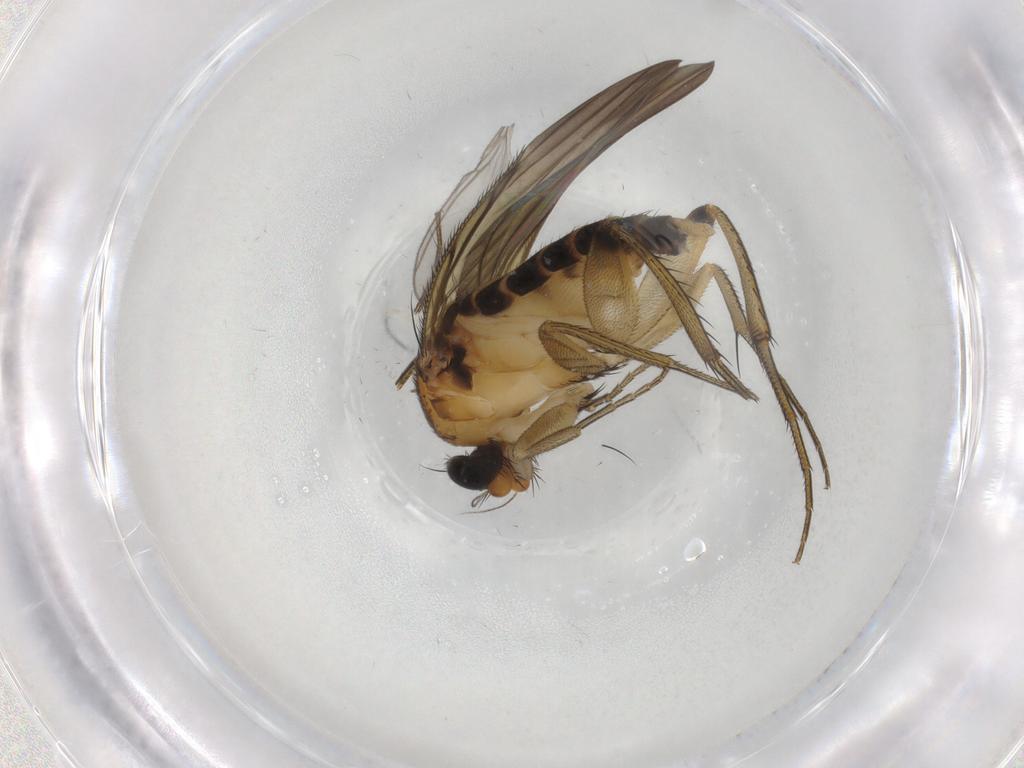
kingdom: Animalia
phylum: Arthropoda
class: Insecta
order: Diptera
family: Phoridae
